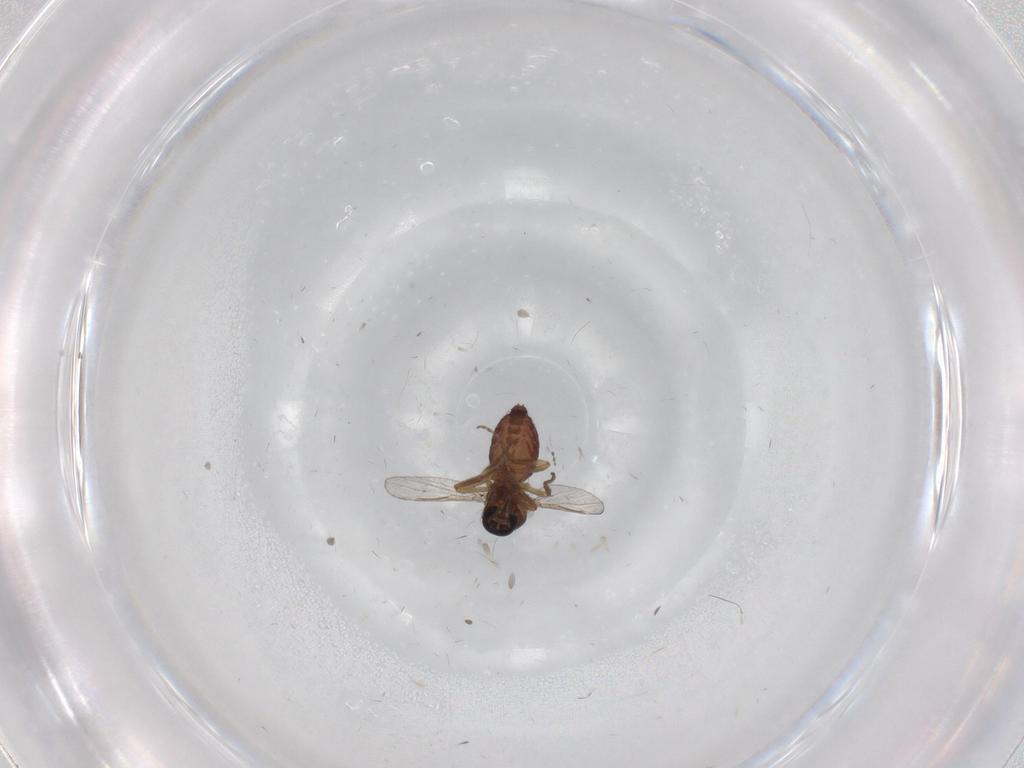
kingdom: Animalia
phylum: Arthropoda
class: Insecta
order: Diptera
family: Ceratopogonidae
